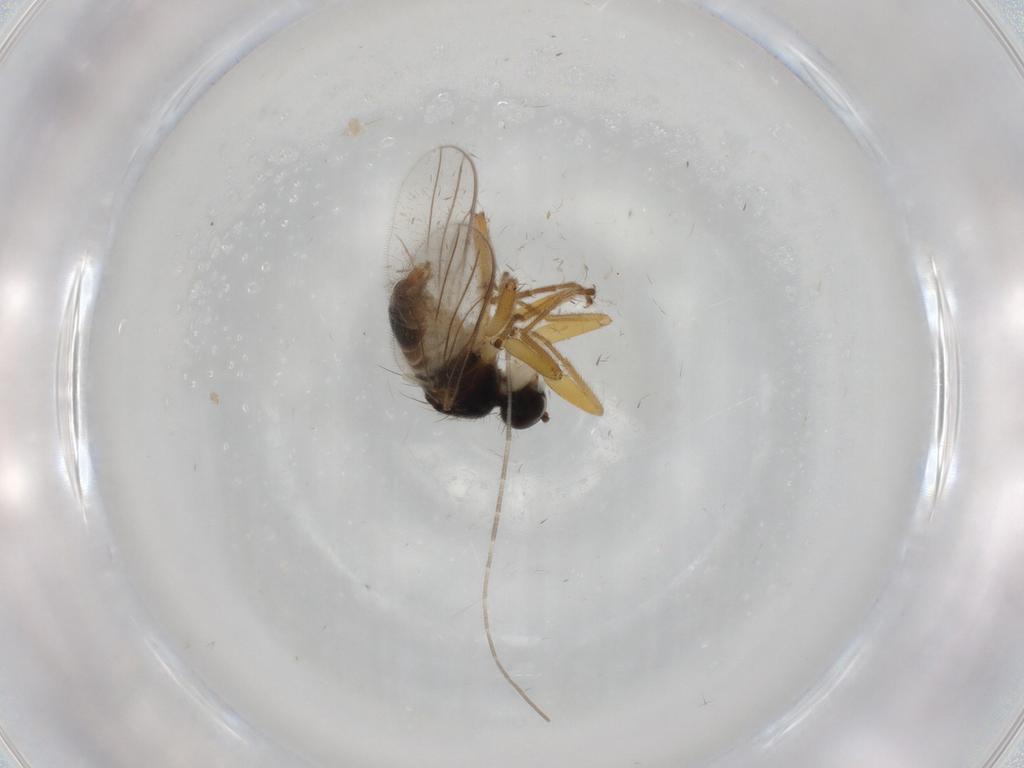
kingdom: Animalia
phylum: Arthropoda
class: Insecta
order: Diptera
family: Hybotidae
